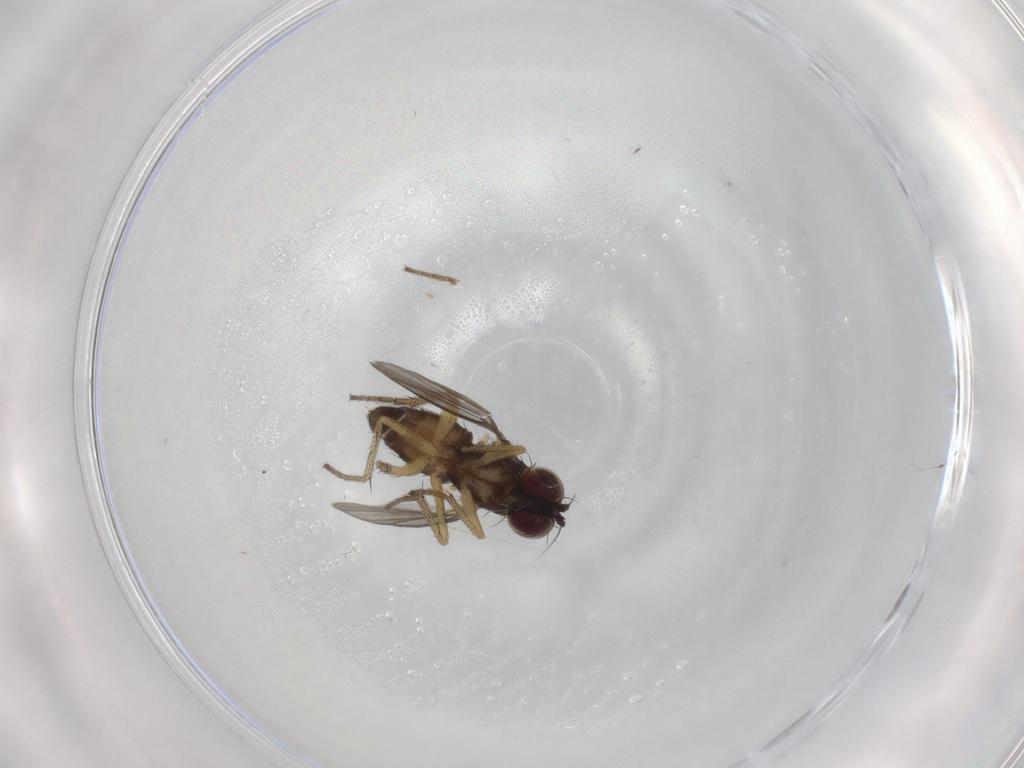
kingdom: Animalia
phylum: Arthropoda
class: Insecta
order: Diptera
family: Dolichopodidae
